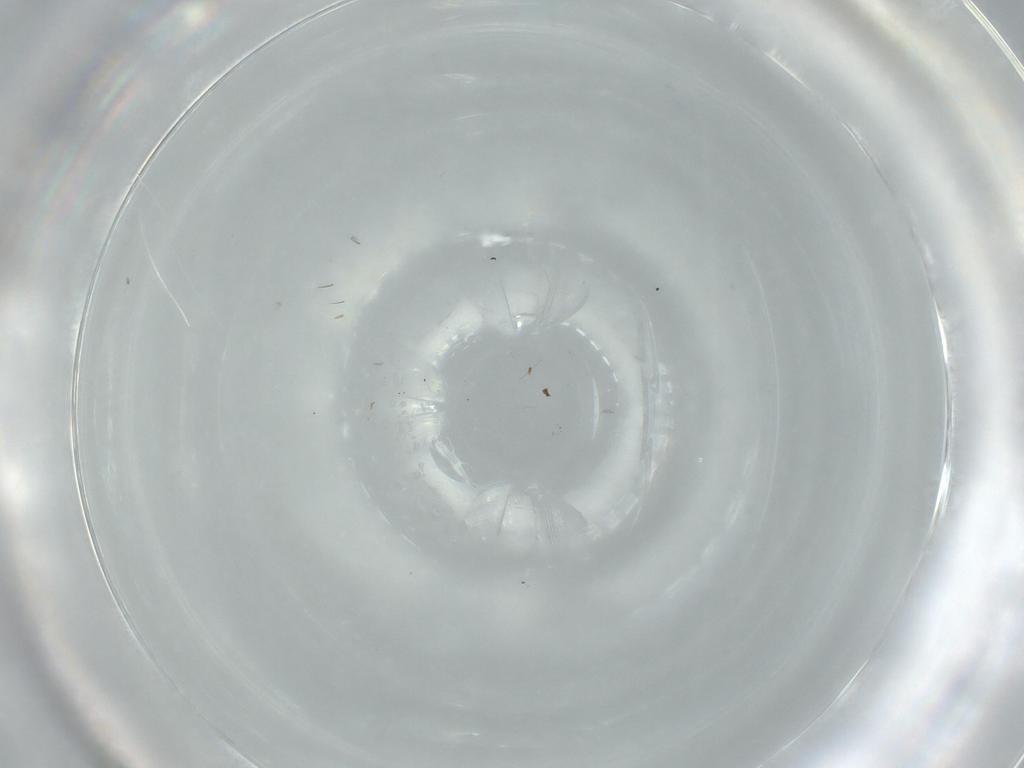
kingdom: Animalia
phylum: Arthropoda
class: Insecta
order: Diptera
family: Cecidomyiidae
